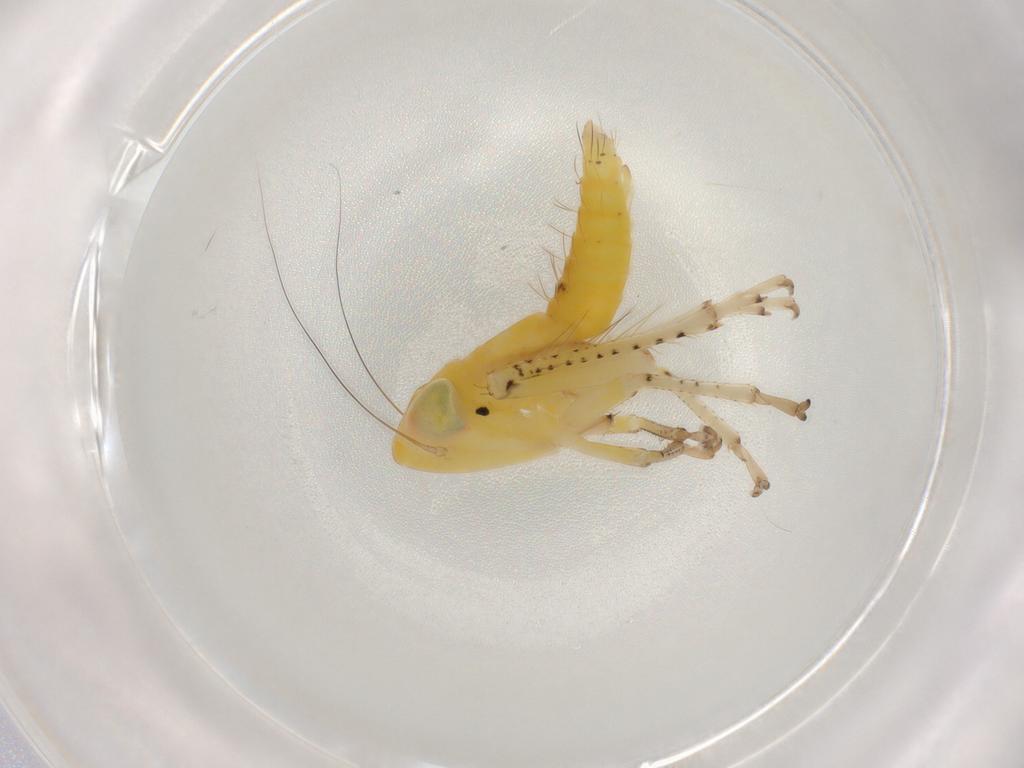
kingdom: Animalia
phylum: Arthropoda
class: Insecta
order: Hemiptera
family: Cicadellidae
